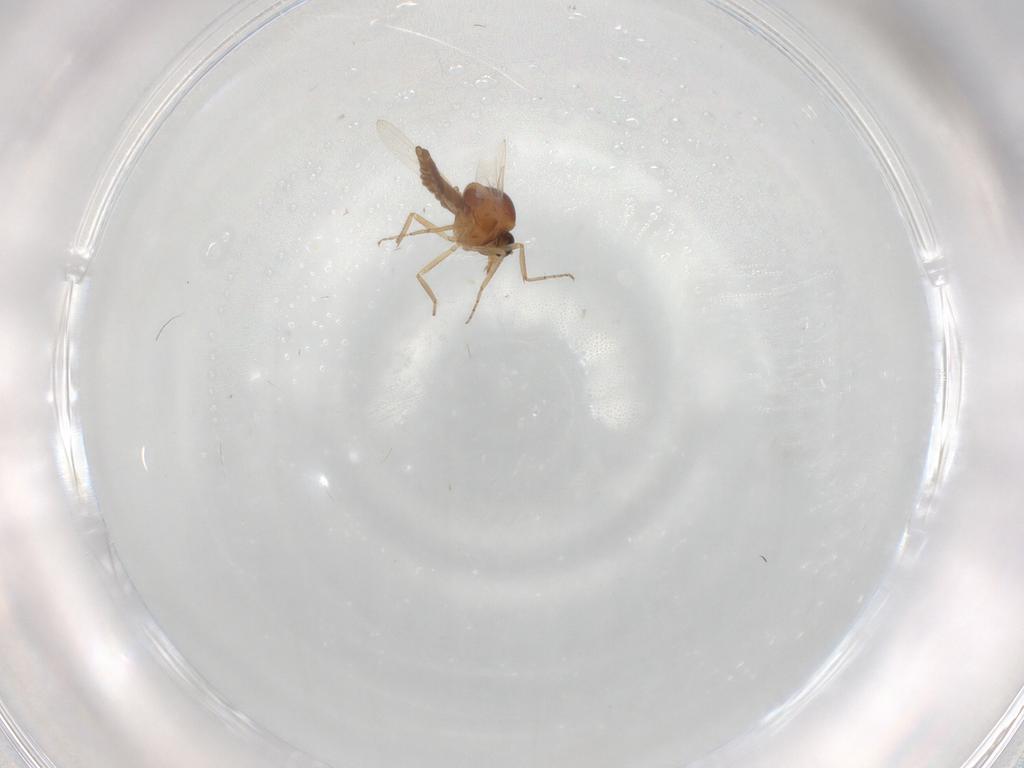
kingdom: Animalia
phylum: Arthropoda
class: Insecta
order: Diptera
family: Ceratopogonidae
